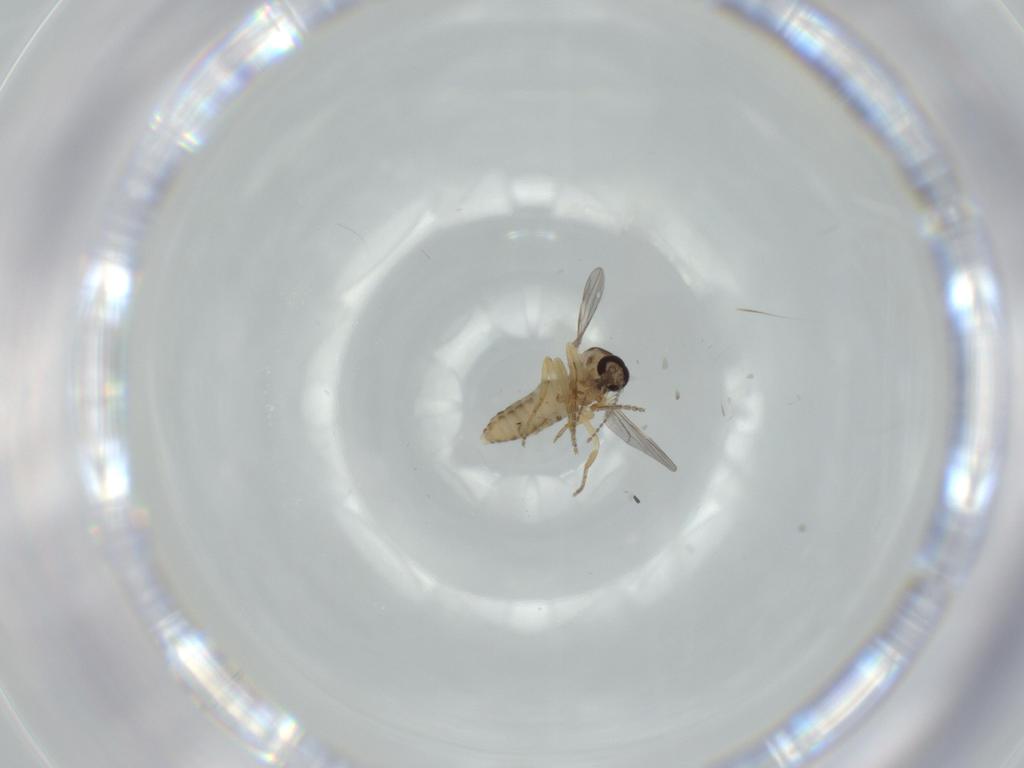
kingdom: Animalia
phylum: Arthropoda
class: Insecta
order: Diptera
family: Ceratopogonidae
